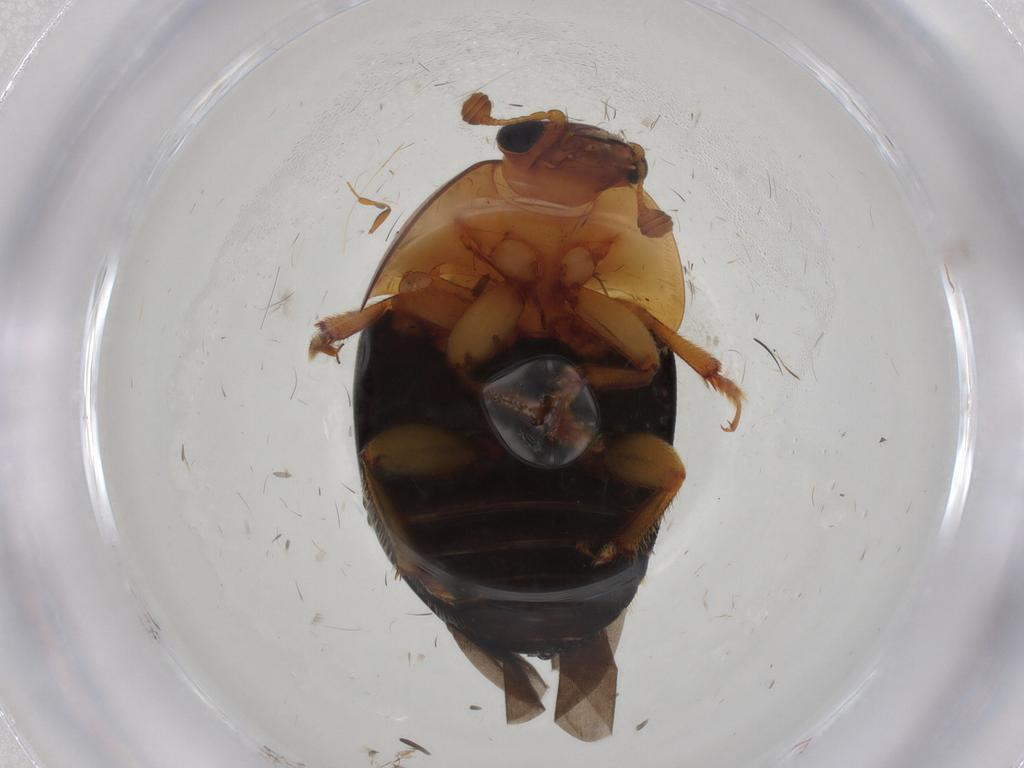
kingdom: Animalia
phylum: Arthropoda
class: Insecta
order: Coleoptera
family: Nitidulidae
